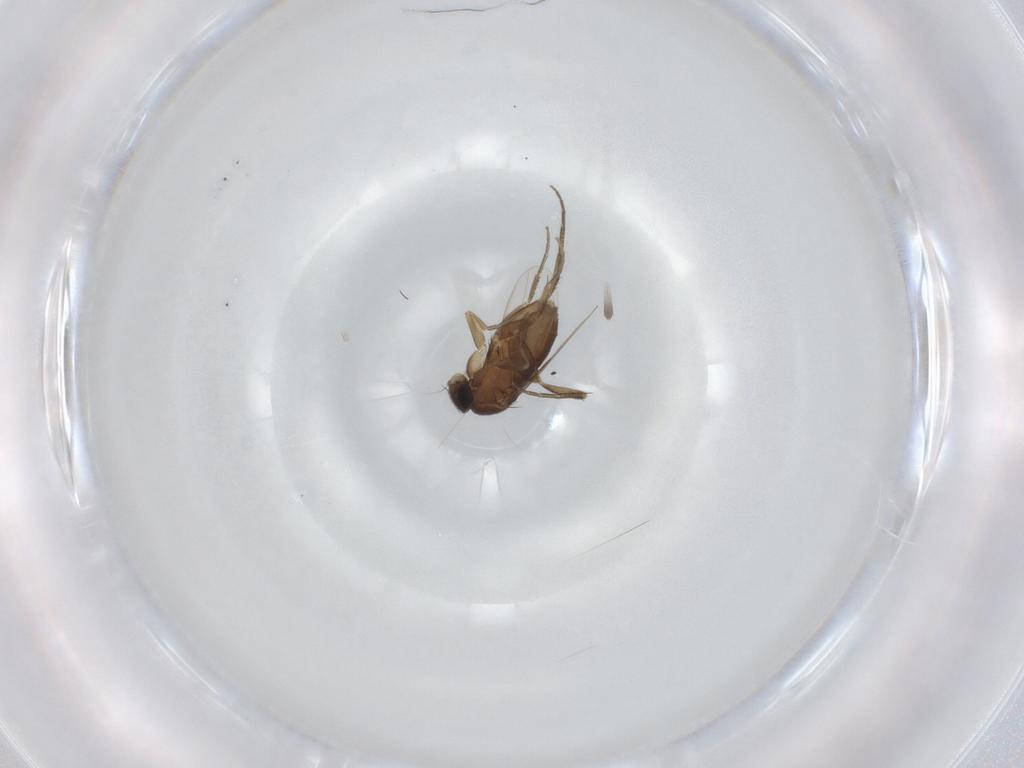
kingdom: Animalia
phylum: Arthropoda
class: Insecta
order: Diptera
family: Phoridae
